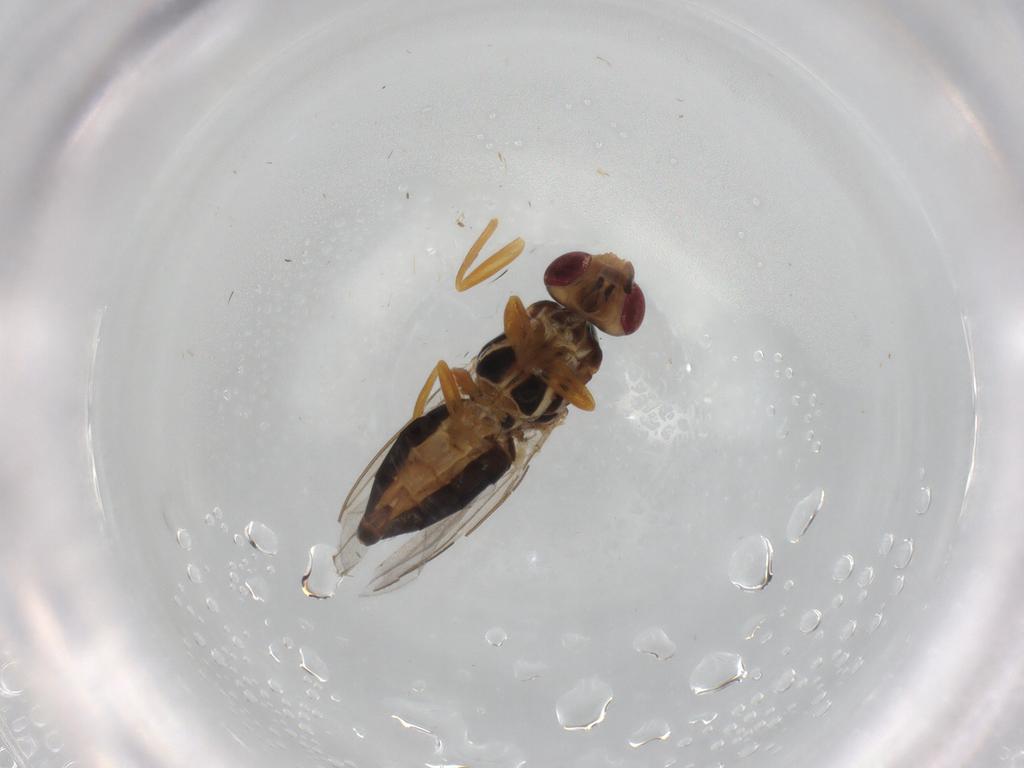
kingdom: Animalia
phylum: Arthropoda
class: Insecta
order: Diptera
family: Chloropidae
